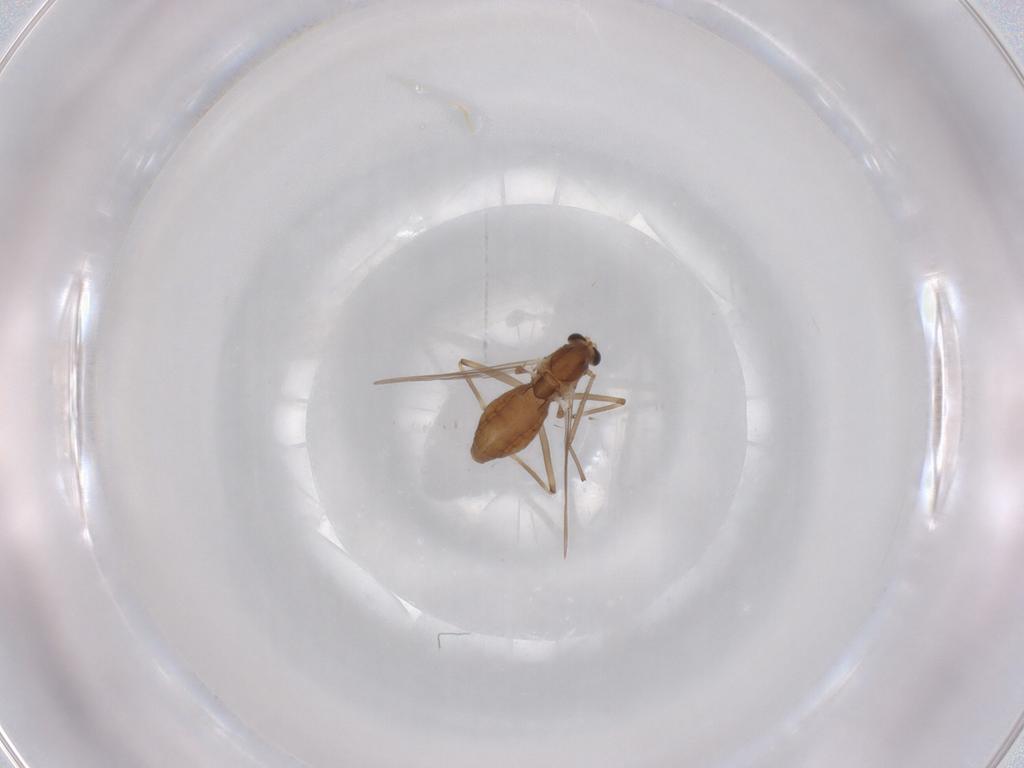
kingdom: Animalia
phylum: Arthropoda
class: Insecta
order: Diptera
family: Chironomidae
